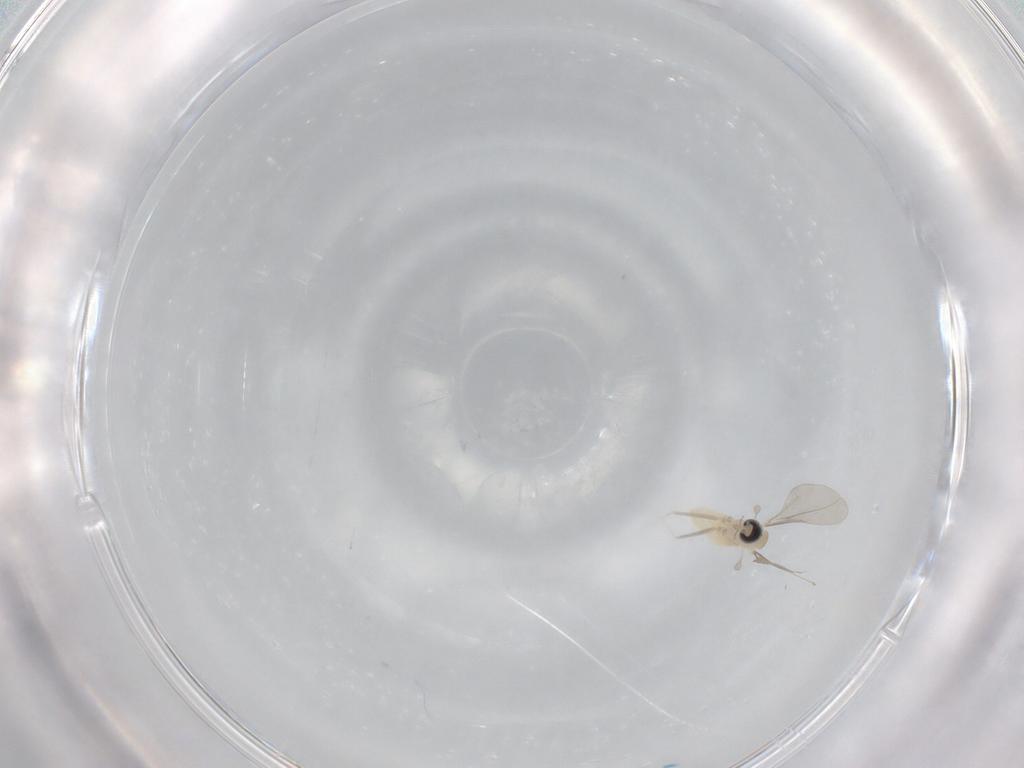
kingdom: Animalia
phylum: Arthropoda
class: Insecta
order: Diptera
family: Cecidomyiidae
